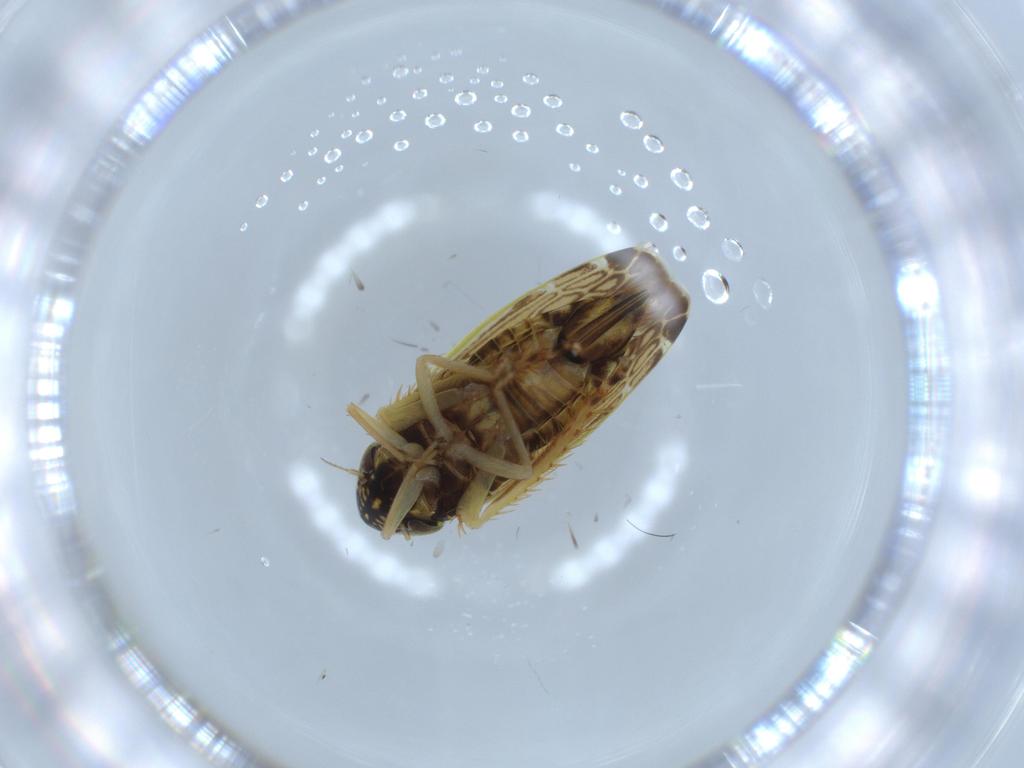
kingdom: Animalia
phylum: Arthropoda
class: Insecta
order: Hemiptera
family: Cicadellidae
